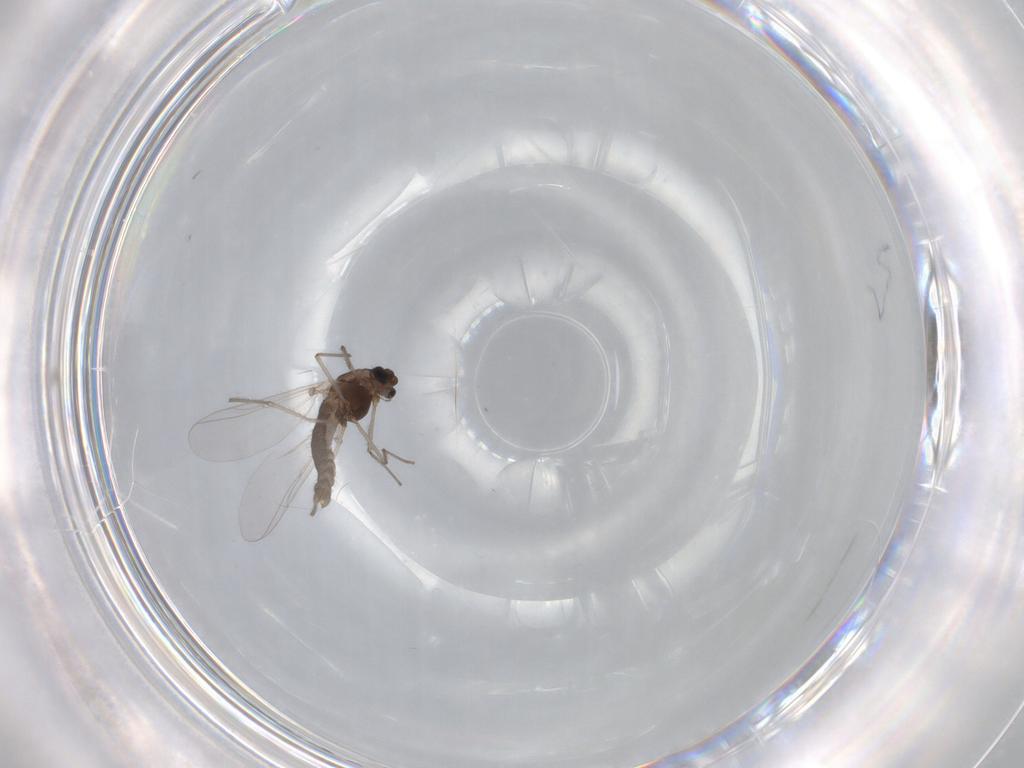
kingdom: Animalia
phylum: Arthropoda
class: Insecta
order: Diptera
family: Chironomidae
